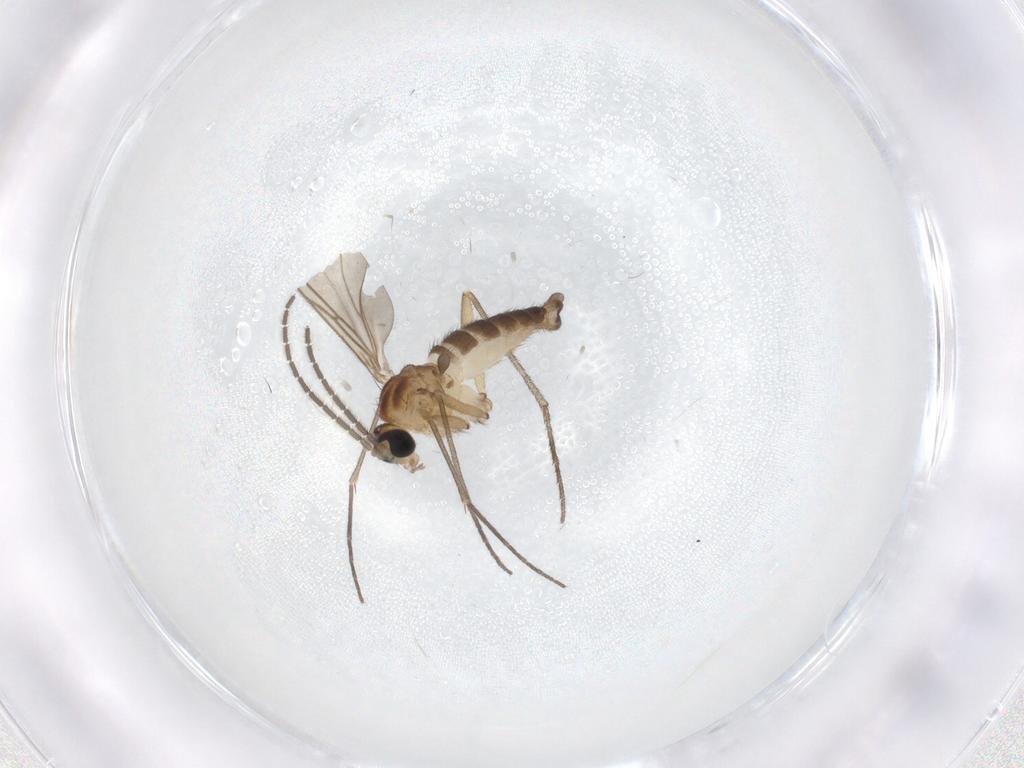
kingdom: Animalia
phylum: Arthropoda
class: Insecta
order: Diptera
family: Sciaridae
